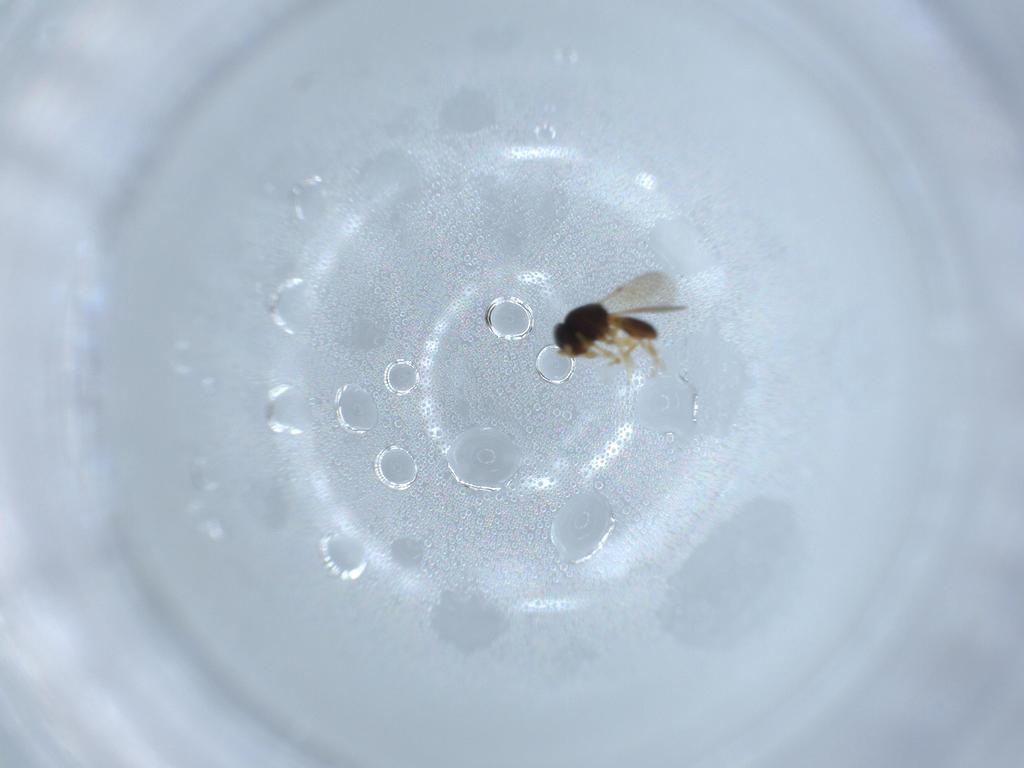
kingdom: Animalia
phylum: Arthropoda
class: Insecta
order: Hymenoptera
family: Scelionidae
